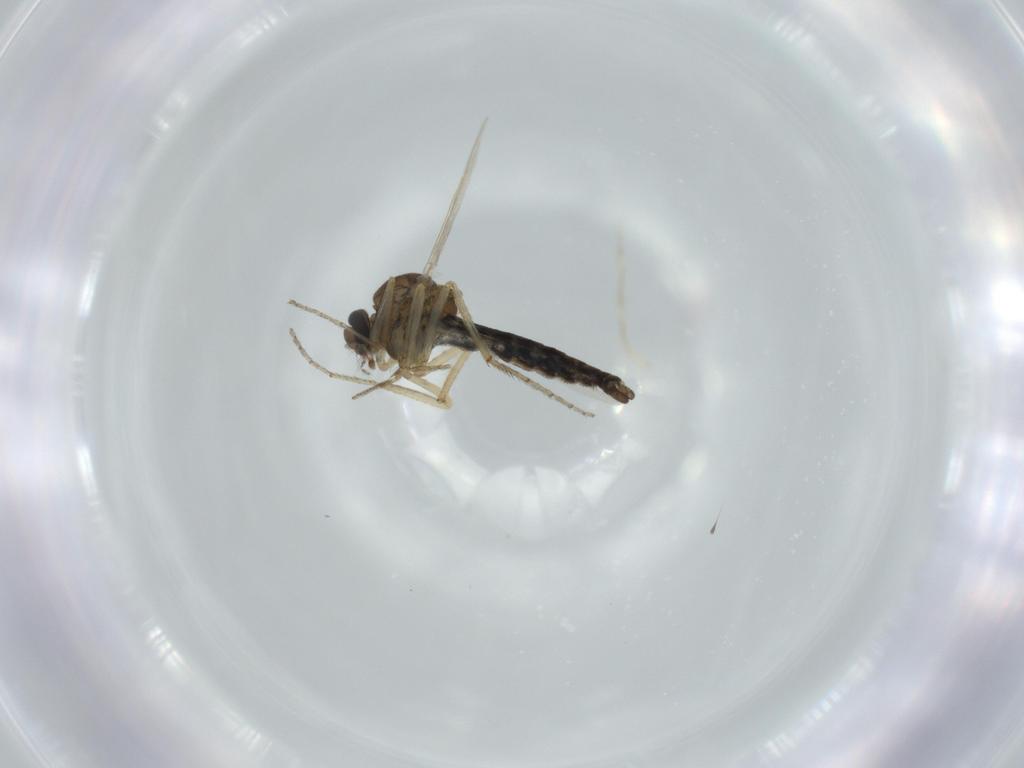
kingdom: Animalia
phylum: Arthropoda
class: Insecta
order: Diptera
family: Ceratopogonidae
